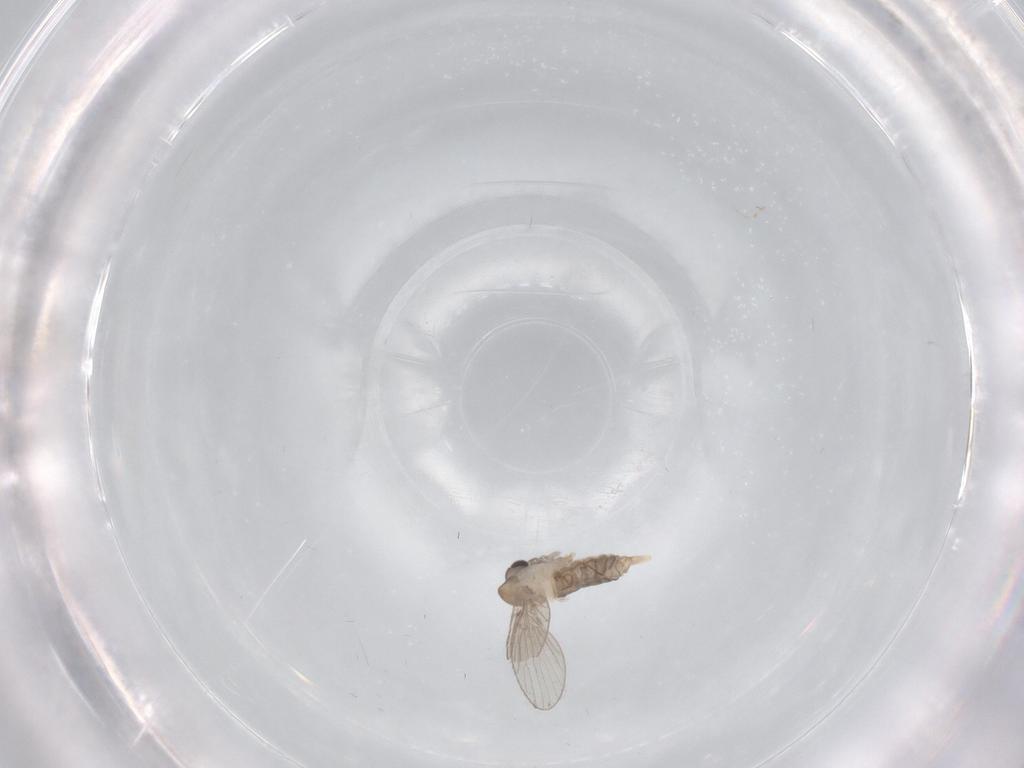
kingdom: Animalia
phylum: Arthropoda
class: Insecta
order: Diptera
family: Psychodidae
